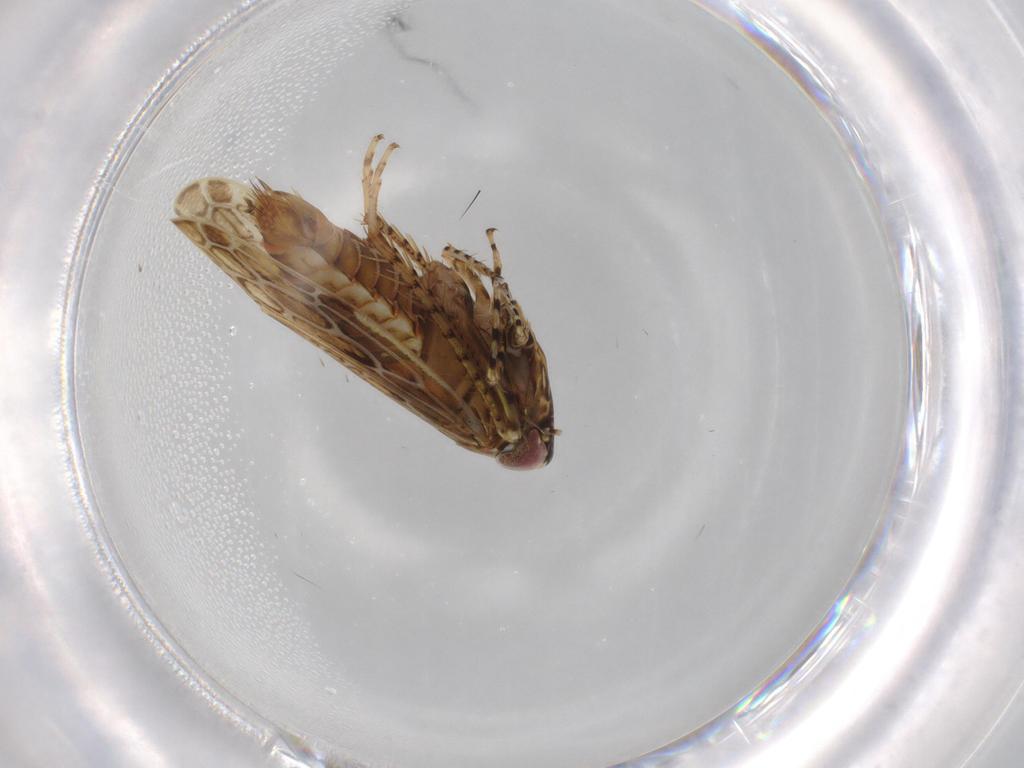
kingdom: Animalia
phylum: Arthropoda
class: Insecta
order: Hemiptera
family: Cicadellidae
